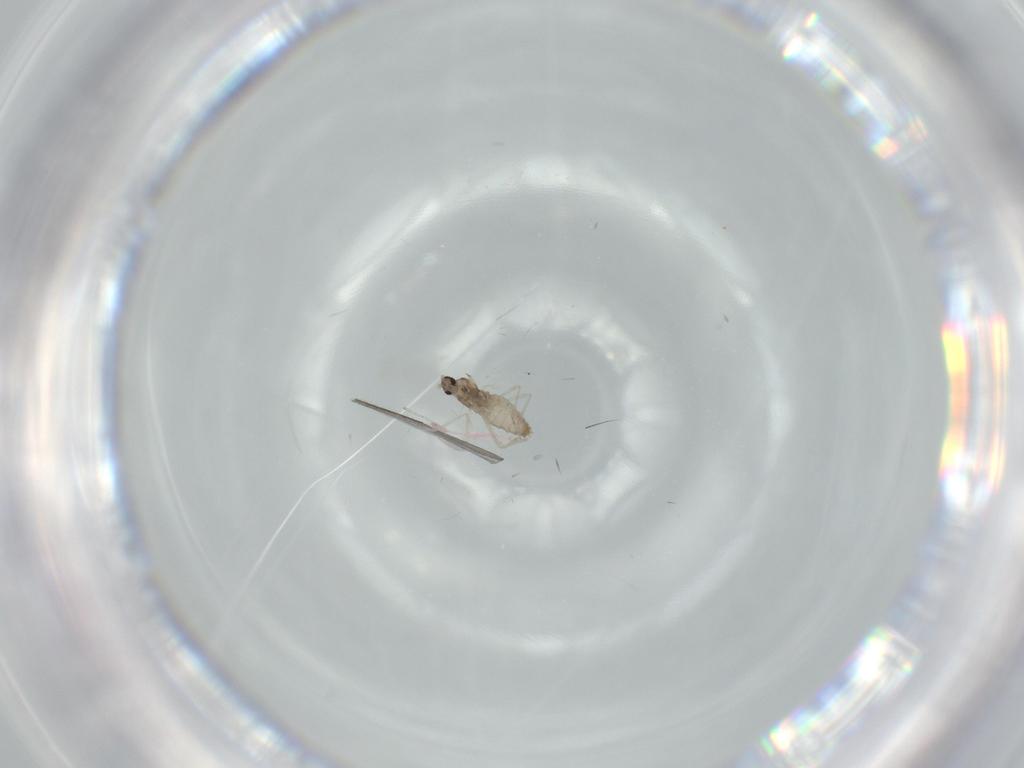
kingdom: Animalia
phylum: Arthropoda
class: Insecta
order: Diptera
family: Cecidomyiidae
